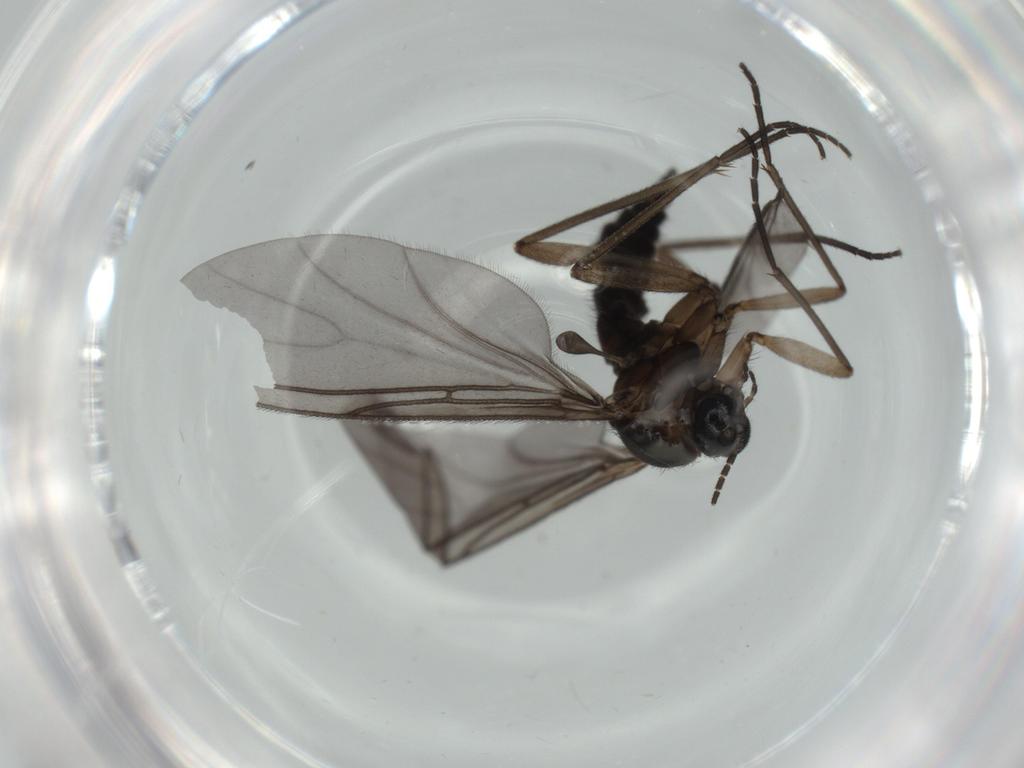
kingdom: Animalia
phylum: Arthropoda
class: Insecta
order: Diptera
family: Sciaridae
